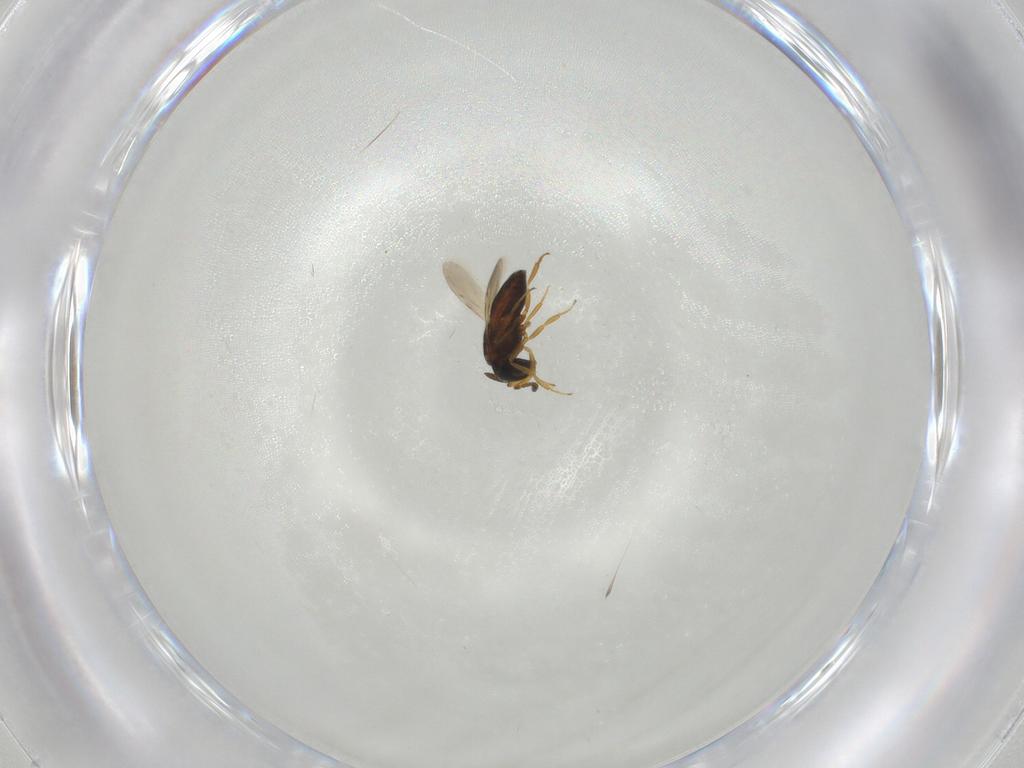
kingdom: Animalia
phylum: Arthropoda
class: Insecta
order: Hymenoptera
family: Scelionidae
